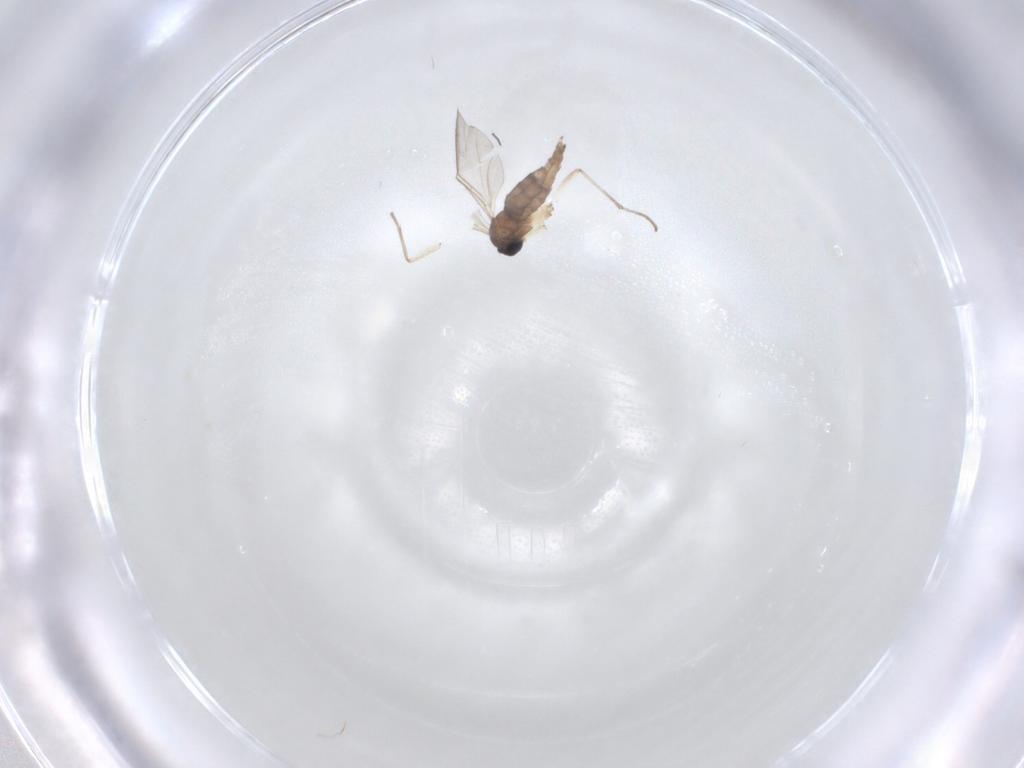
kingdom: Animalia
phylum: Arthropoda
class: Insecta
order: Diptera
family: Sciaridae
